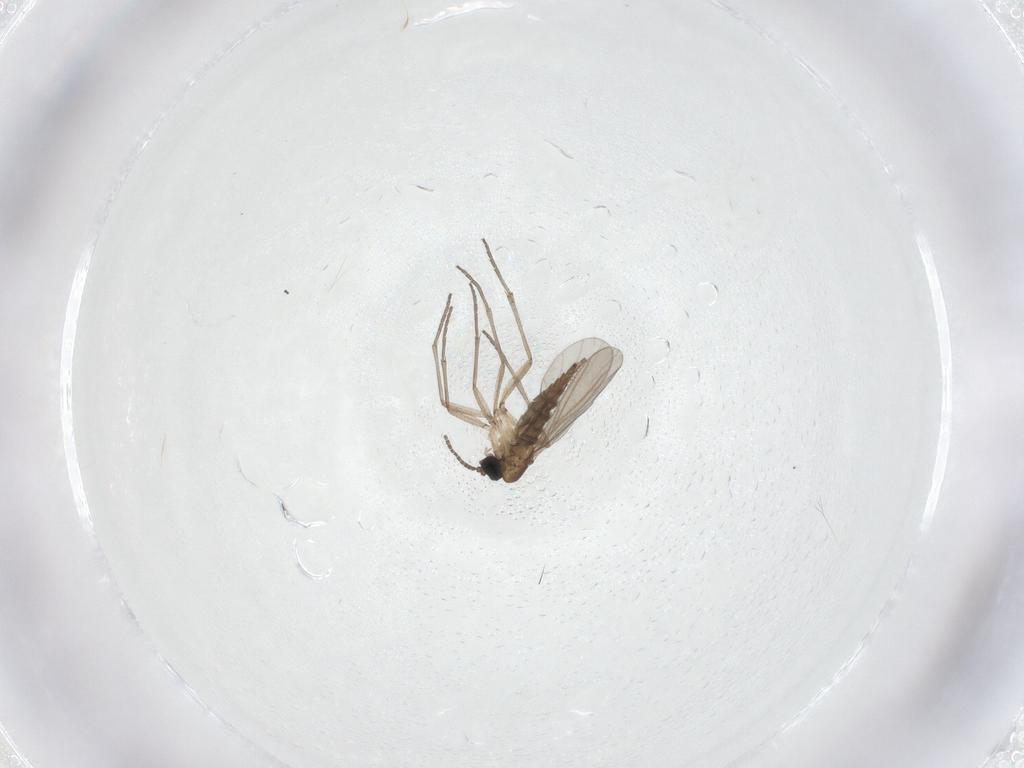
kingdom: Animalia
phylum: Arthropoda
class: Insecta
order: Diptera
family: Sciaridae
